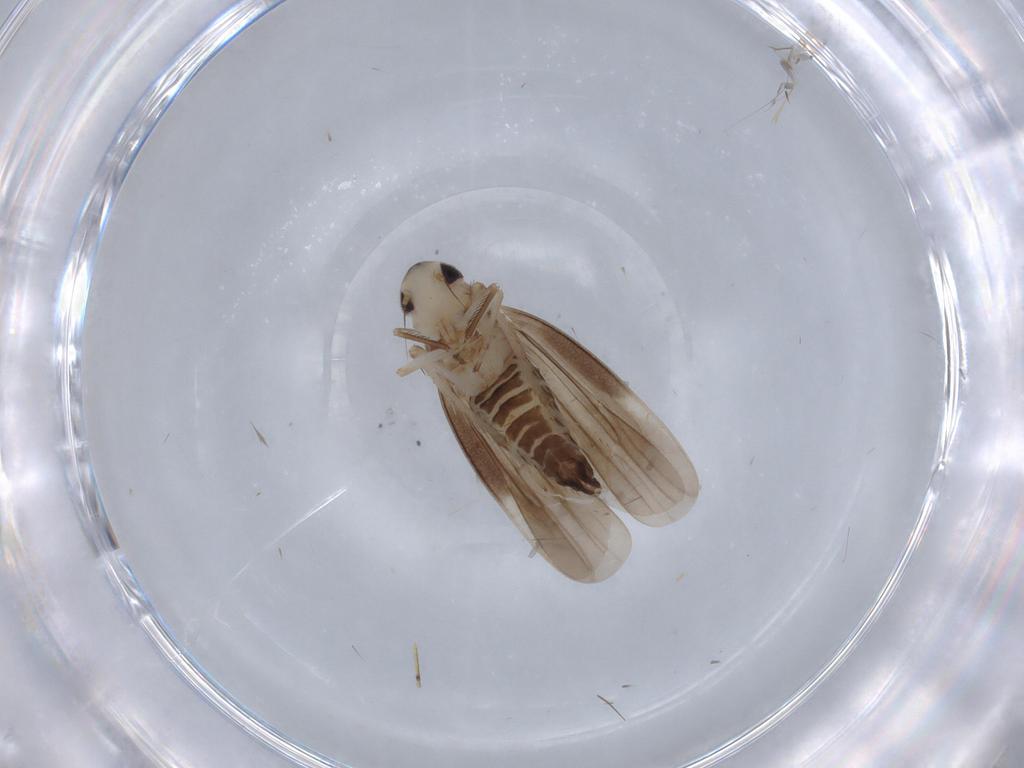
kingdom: Animalia
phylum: Arthropoda
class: Insecta
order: Hemiptera
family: Cicadellidae
